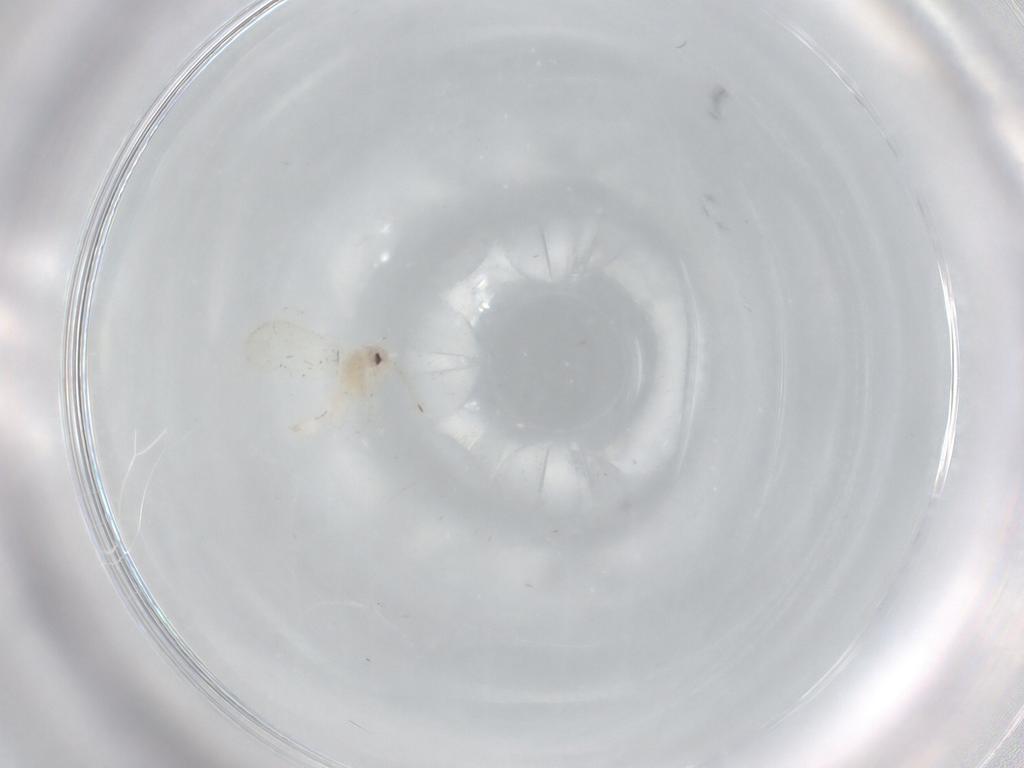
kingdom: Animalia
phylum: Arthropoda
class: Insecta
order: Hemiptera
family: Aleyrodidae
